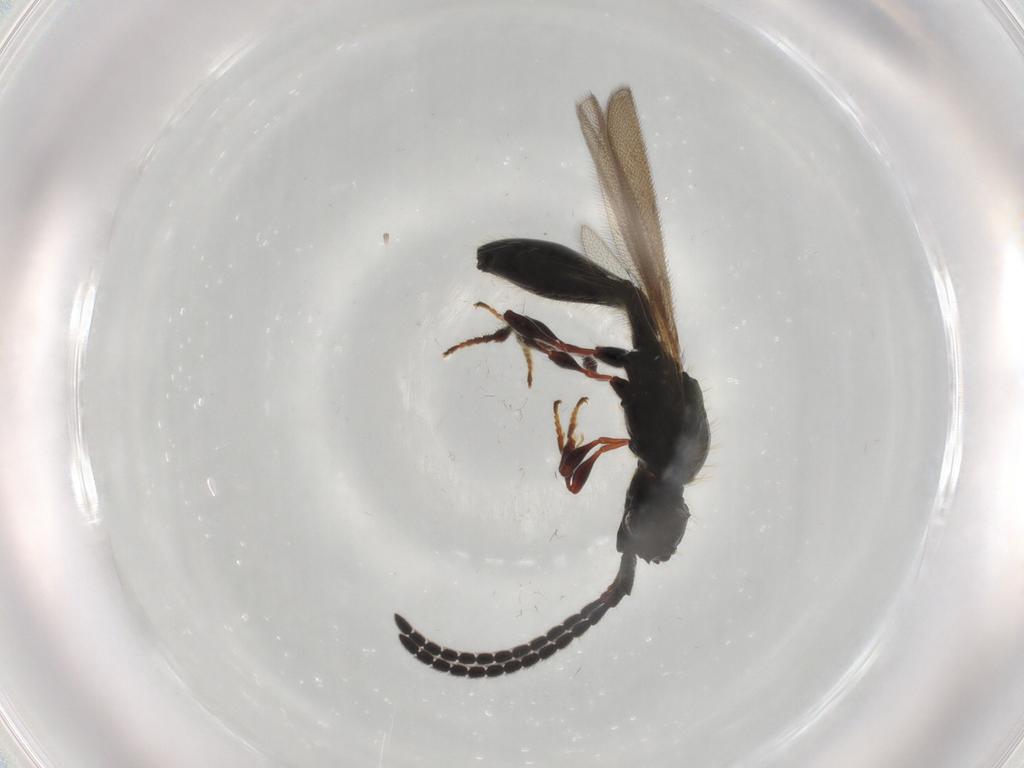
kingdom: Animalia
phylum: Arthropoda
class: Insecta
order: Hymenoptera
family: Diapriidae
